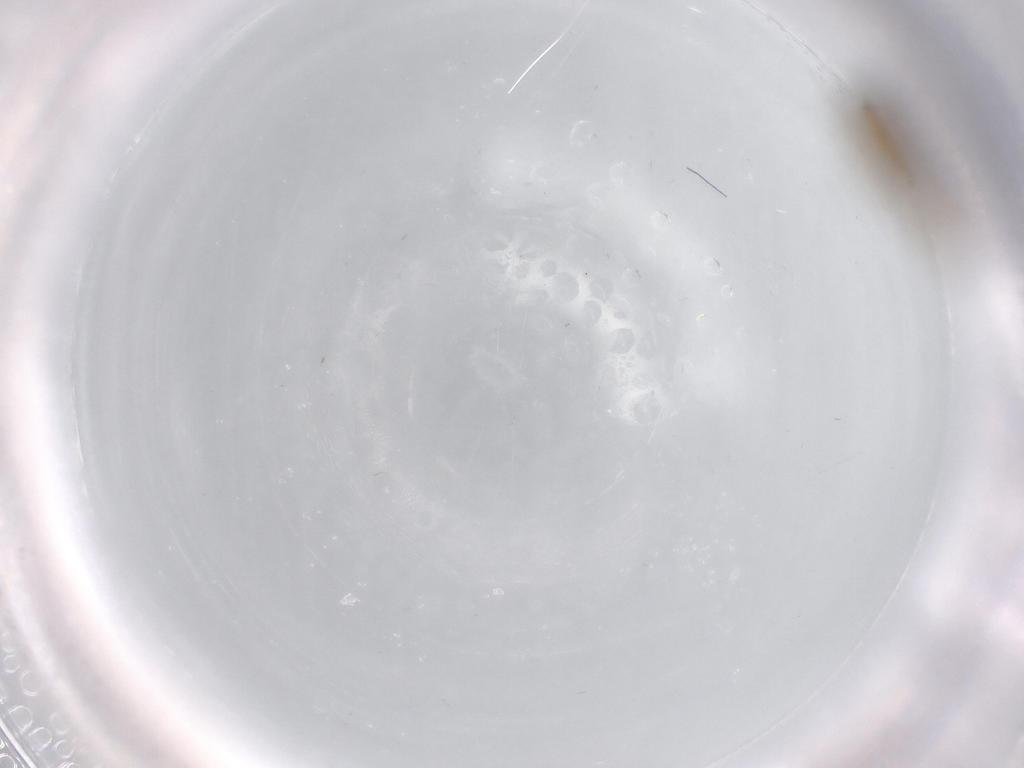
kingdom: Animalia
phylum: Arthropoda
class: Insecta
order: Diptera
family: Chironomidae
